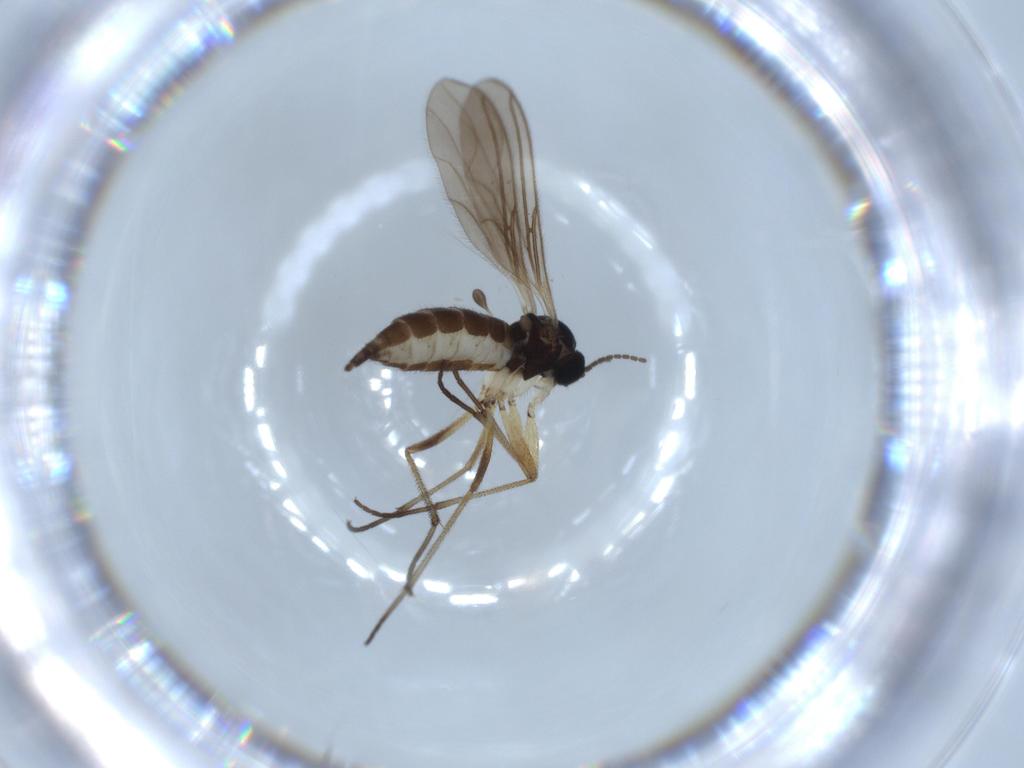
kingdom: Animalia
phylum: Arthropoda
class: Insecta
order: Diptera
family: Sciaridae
